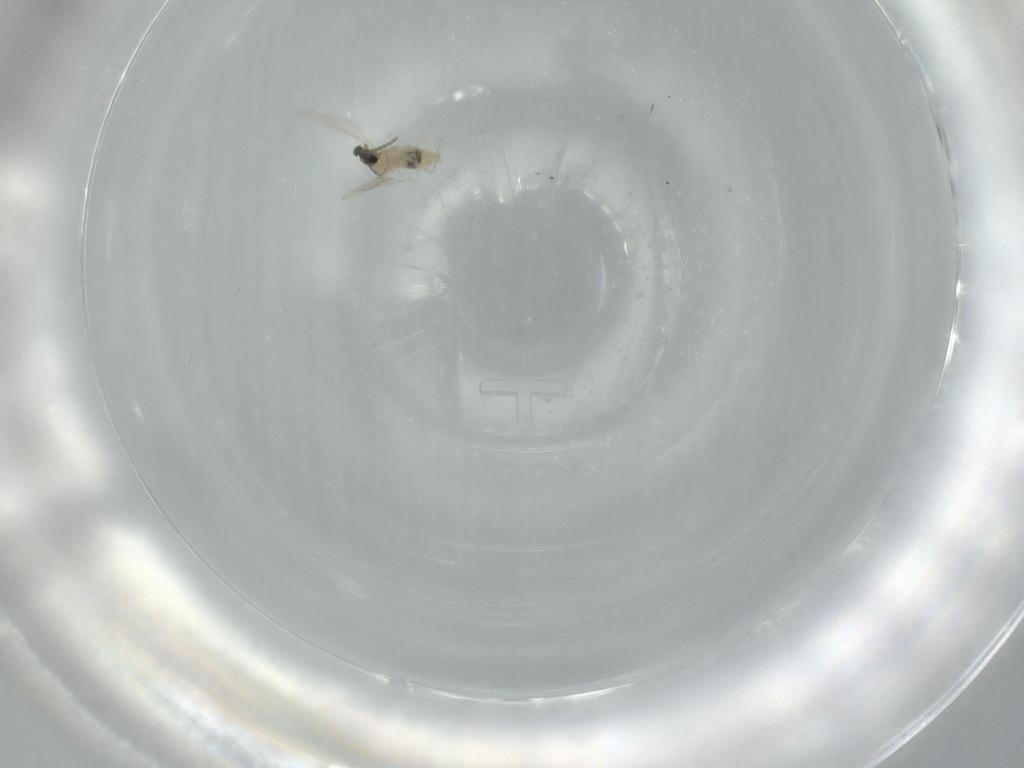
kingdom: Animalia
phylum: Arthropoda
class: Insecta
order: Diptera
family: Cecidomyiidae
